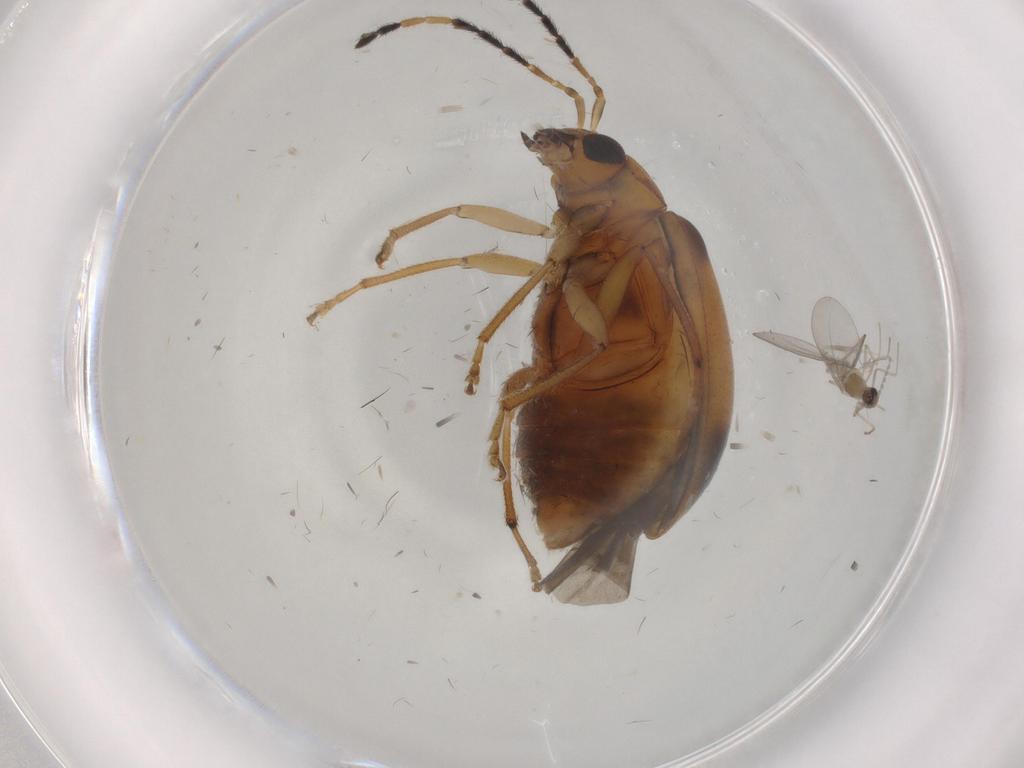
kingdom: Animalia
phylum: Arthropoda
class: Insecta
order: Coleoptera
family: Chrysomelidae
